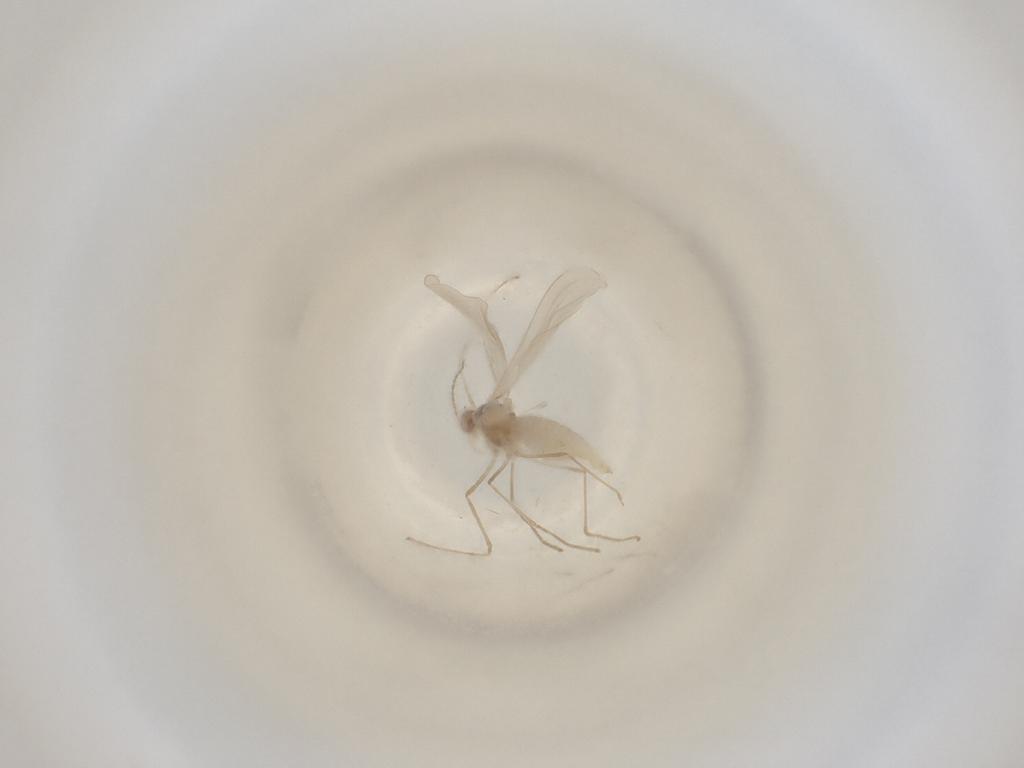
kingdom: Animalia
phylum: Arthropoda
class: Insecta
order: Diptera
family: Cecidomyiidae
